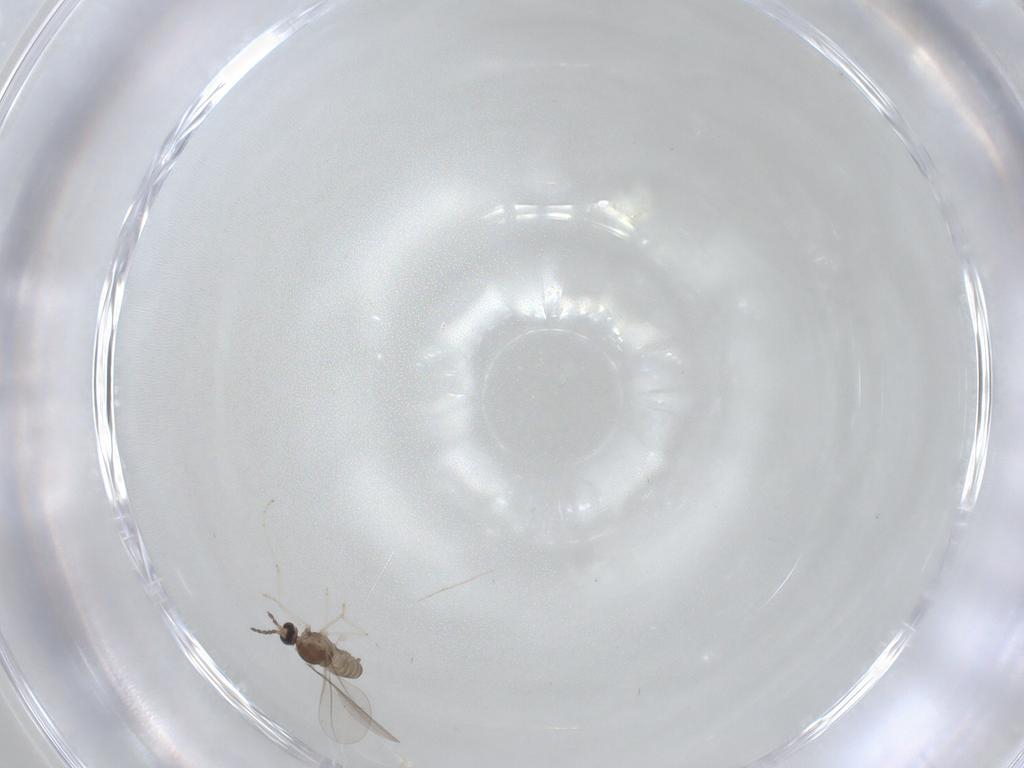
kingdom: Animalia
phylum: Arthropoda
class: Insecta
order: Diptera
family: Cecidomyiidae
